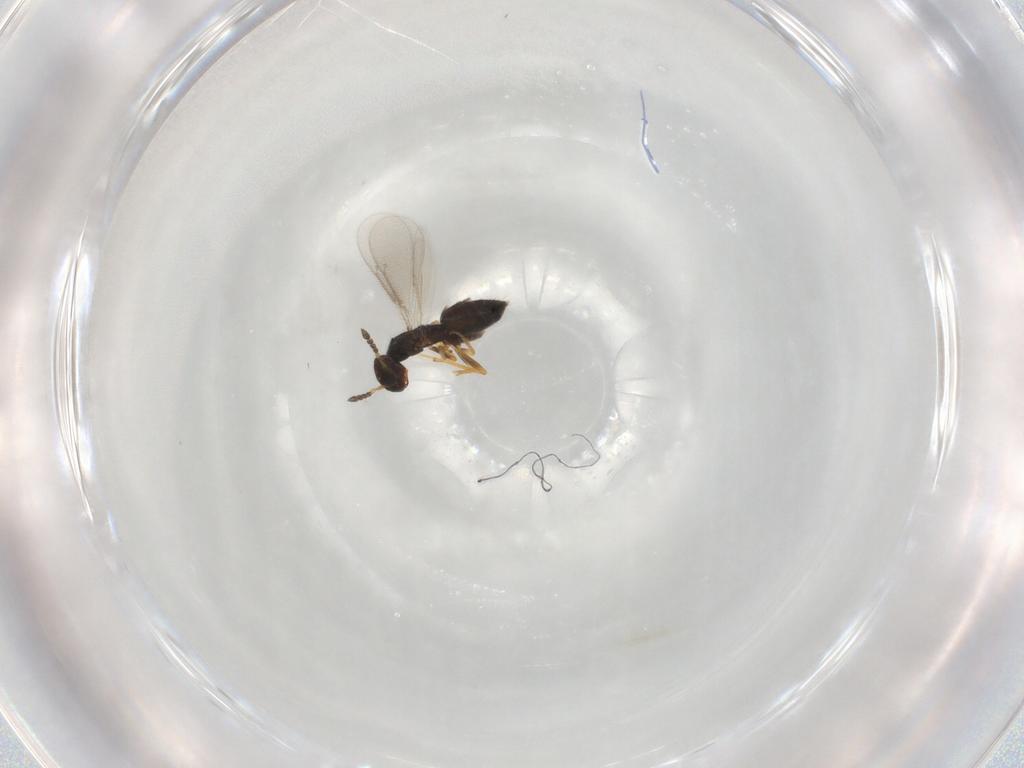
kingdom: Animalia
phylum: Arthropoda
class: Insecta
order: Hymenoptera
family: Eulophidae
